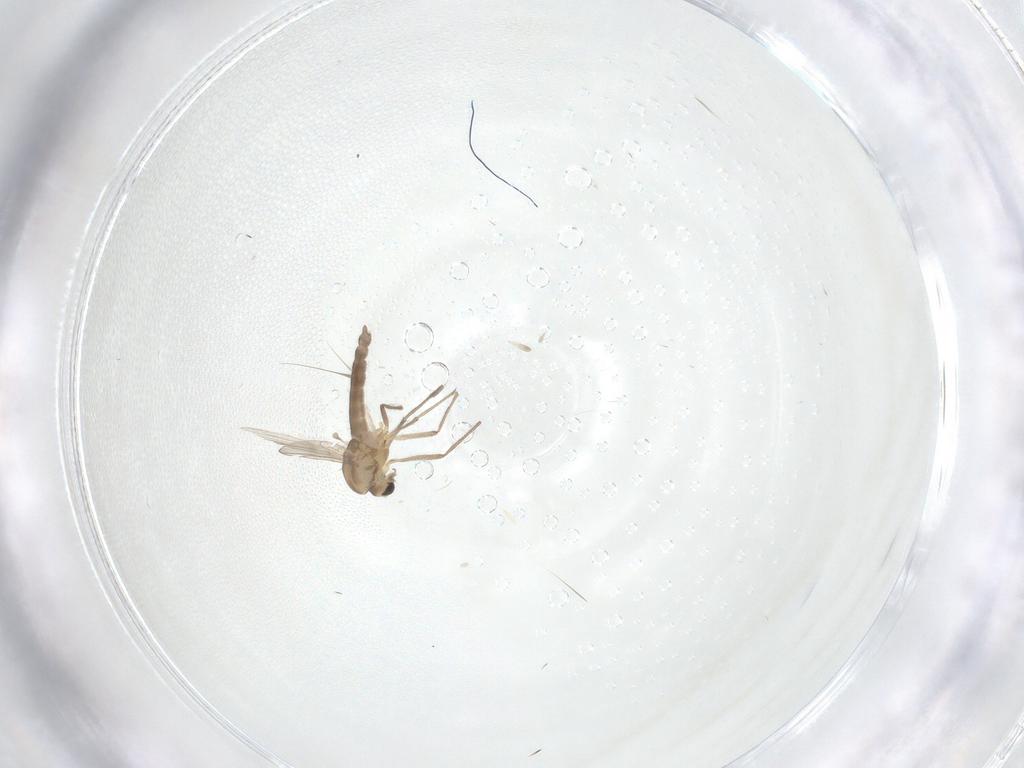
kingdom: Animalia
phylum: Arthropoda
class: Insecta
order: Diptera
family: Chironomidae
